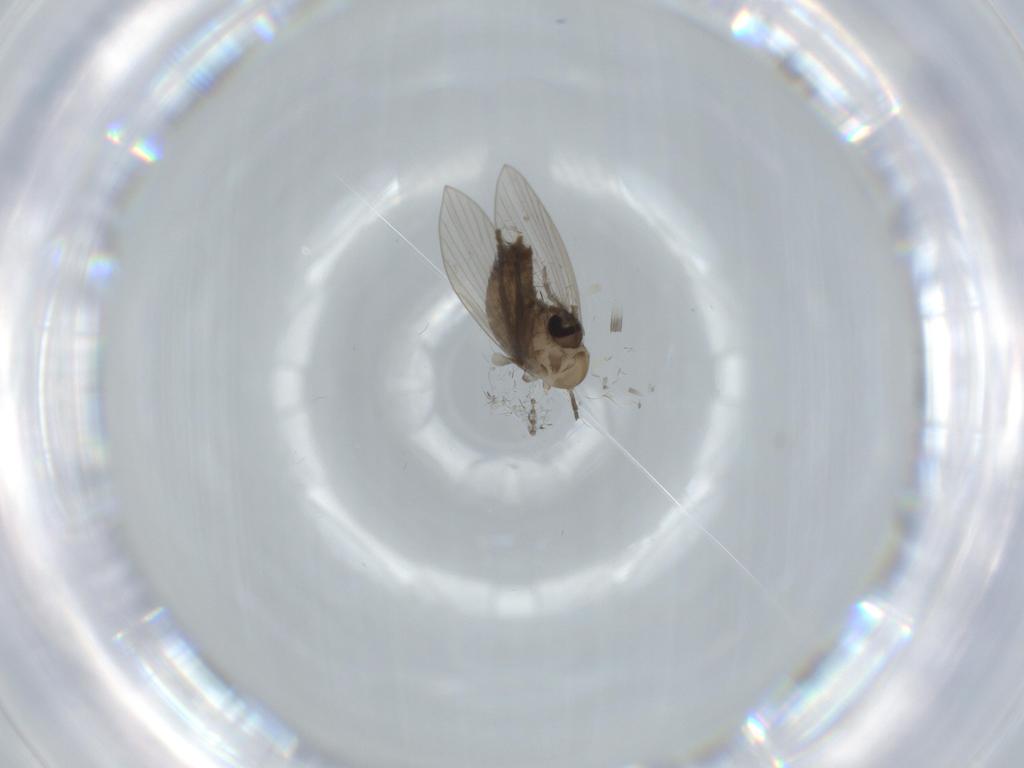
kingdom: Animalia
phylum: Arthropoda
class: Insecta
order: Diptera
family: Psychodidae
